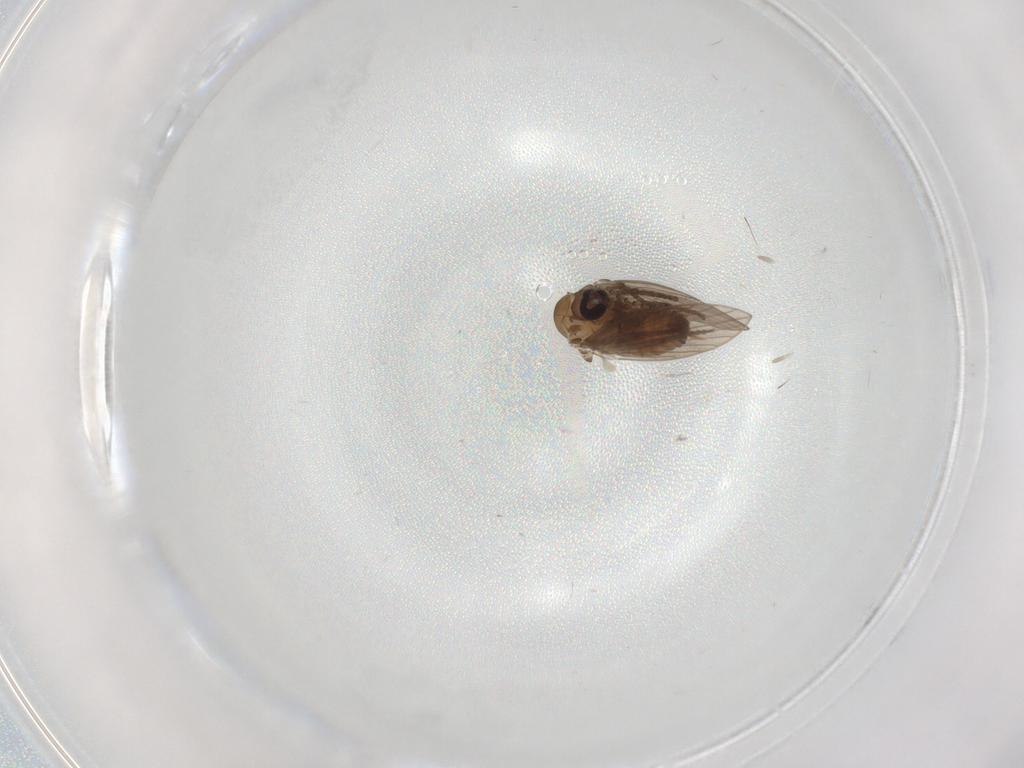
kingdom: Animalia
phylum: Arthropoda
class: Insecta
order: Diptera
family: Psychodidae
